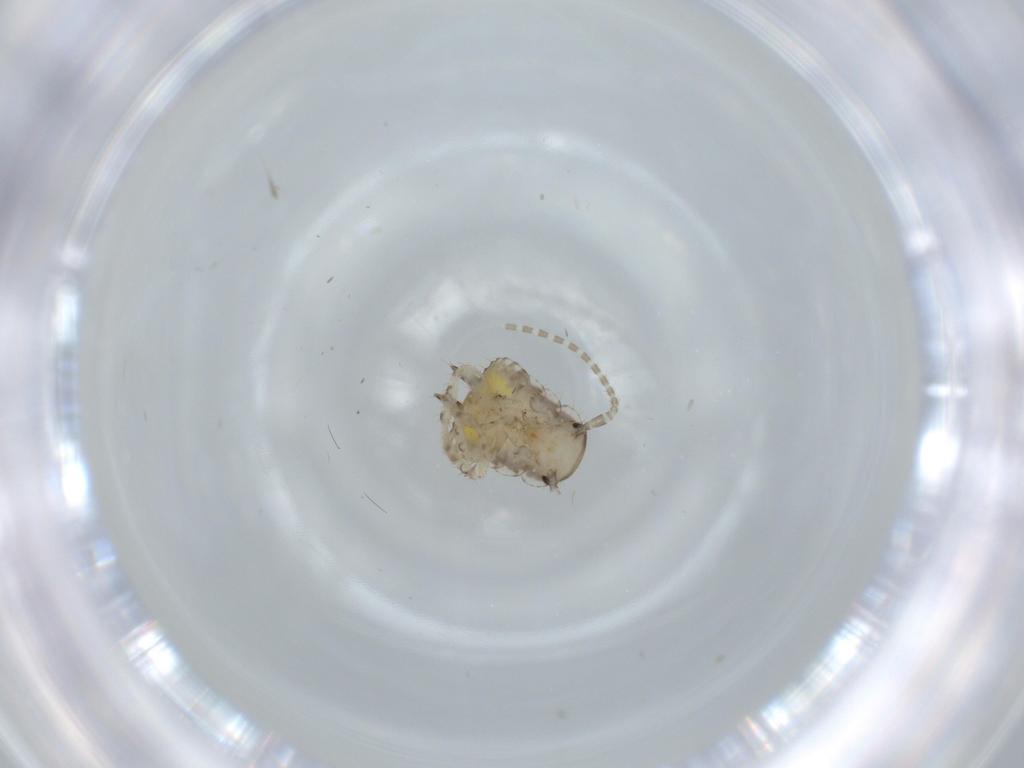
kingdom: Animalia
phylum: Arthropoda
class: Insecta
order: Blattodea
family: Ectobiidae
